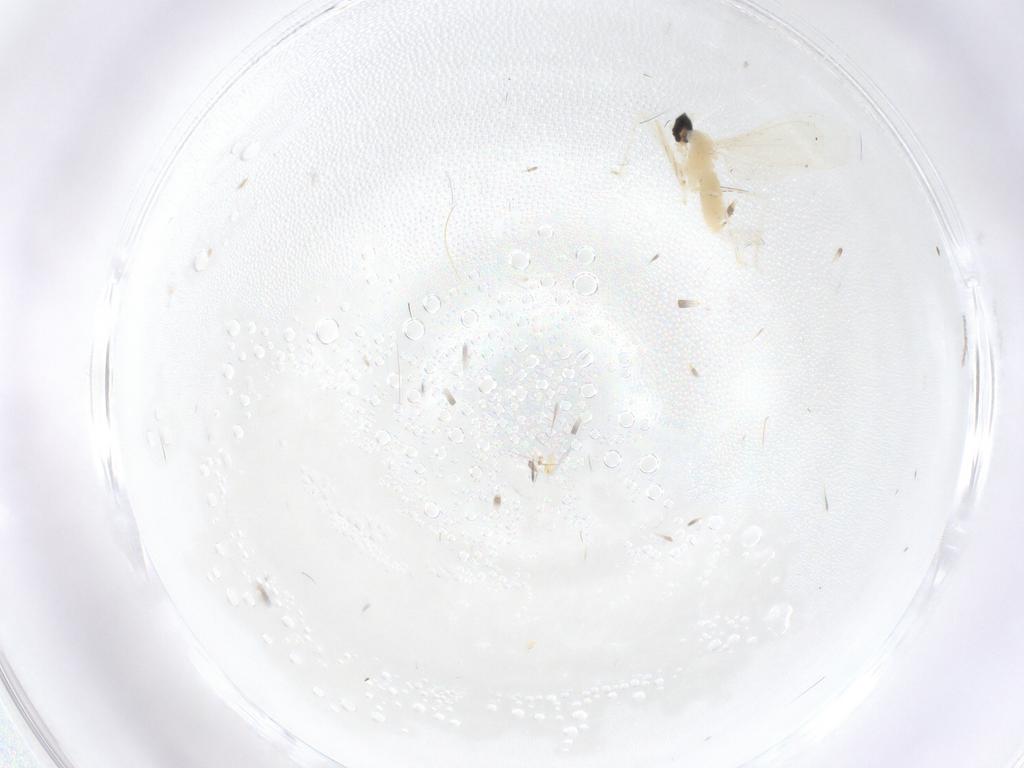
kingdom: Animalia
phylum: Arthropoda
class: Insecta
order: Diptera
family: Cecidomyiidae
